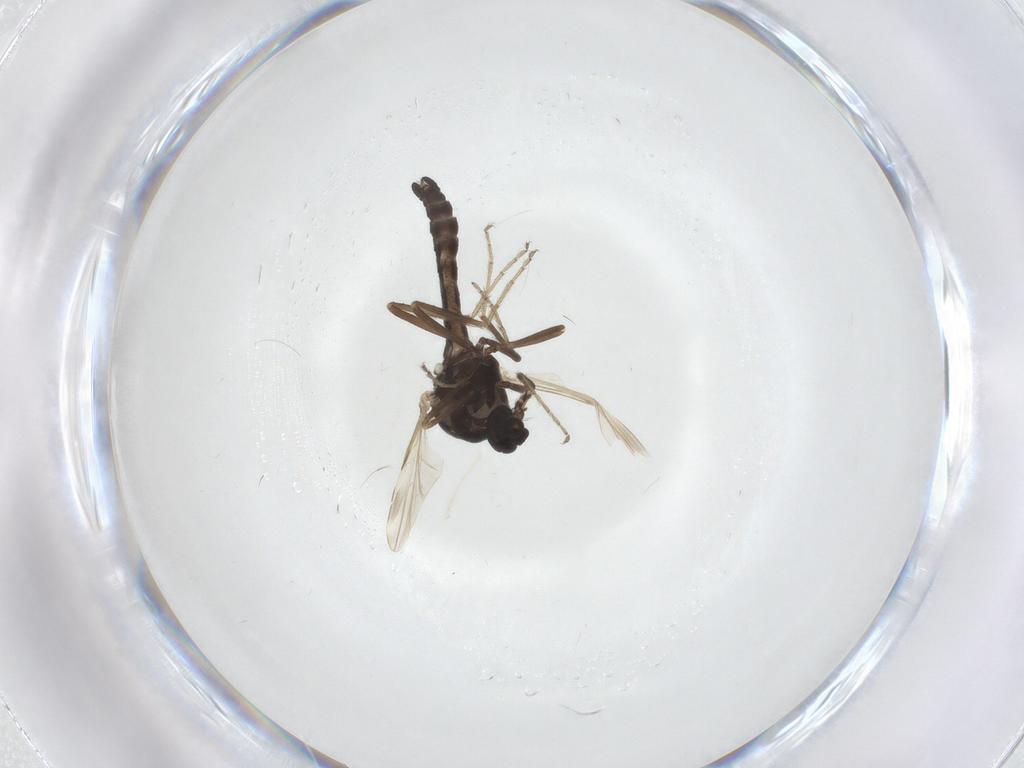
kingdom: Animalia
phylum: Arthropoda
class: Insecta
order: Diptera
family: Ceratopogonidae
